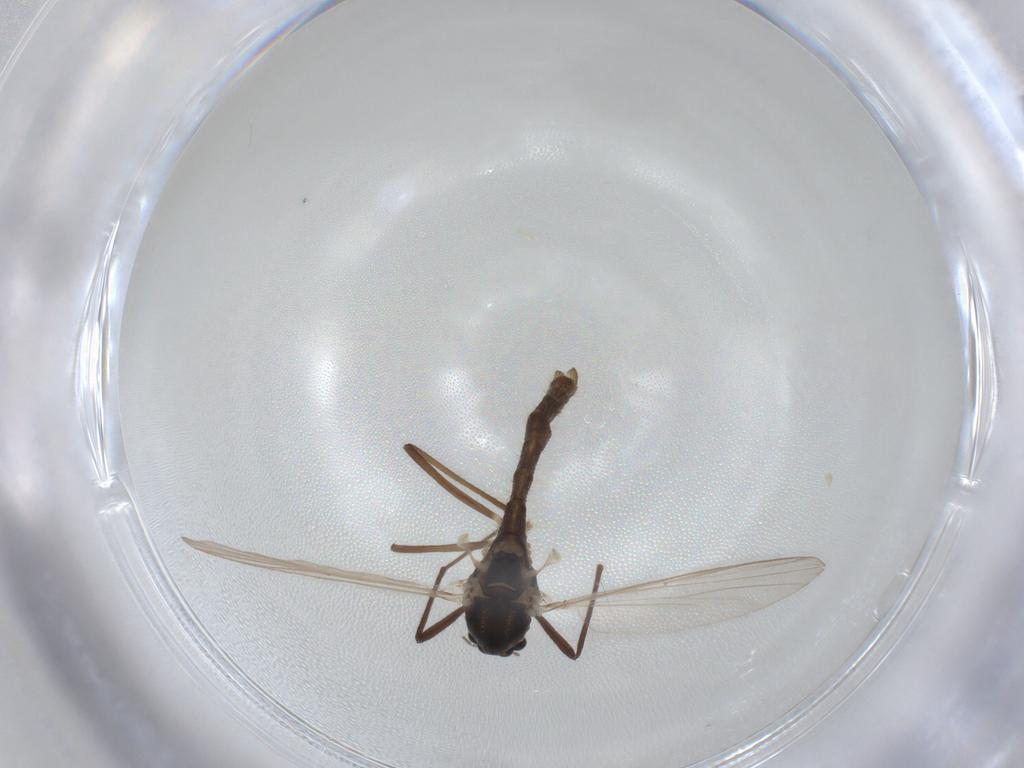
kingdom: Animalia
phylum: Arthropoda
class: Insecta
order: Diptera
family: Chironomidae
